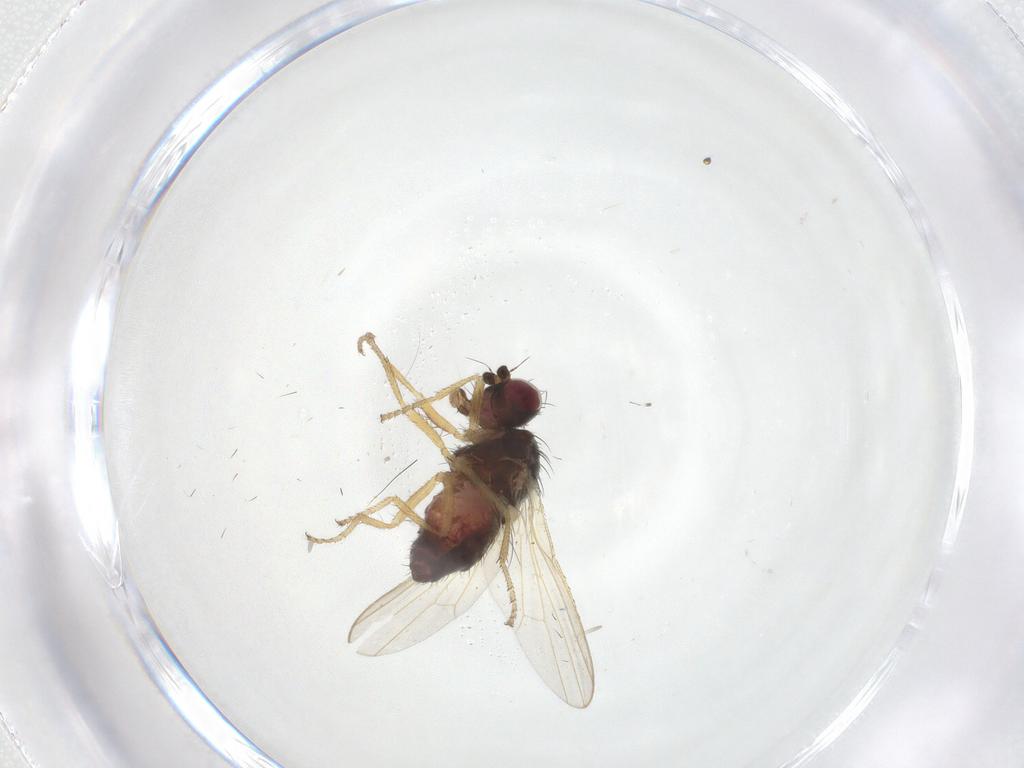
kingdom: Animalia
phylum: Arthropoda
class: Insecta
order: Diptera
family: Heleomyzidae
